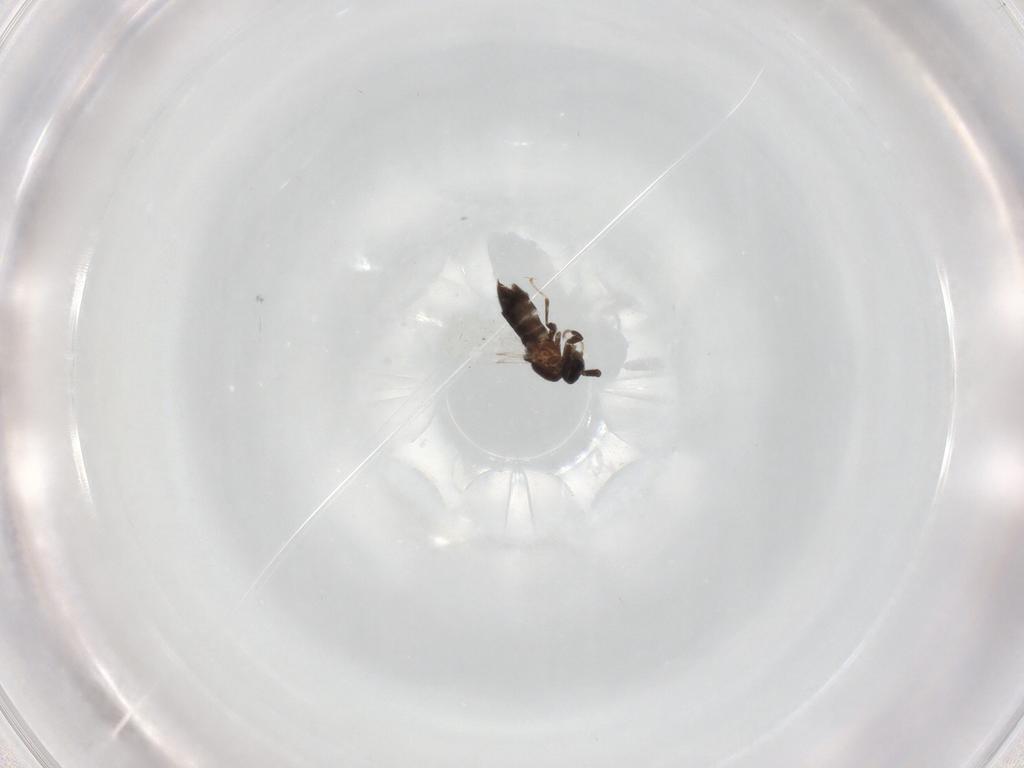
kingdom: Animalia
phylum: Arthropoda
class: Insecta
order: Diptera
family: Scatopsidae
